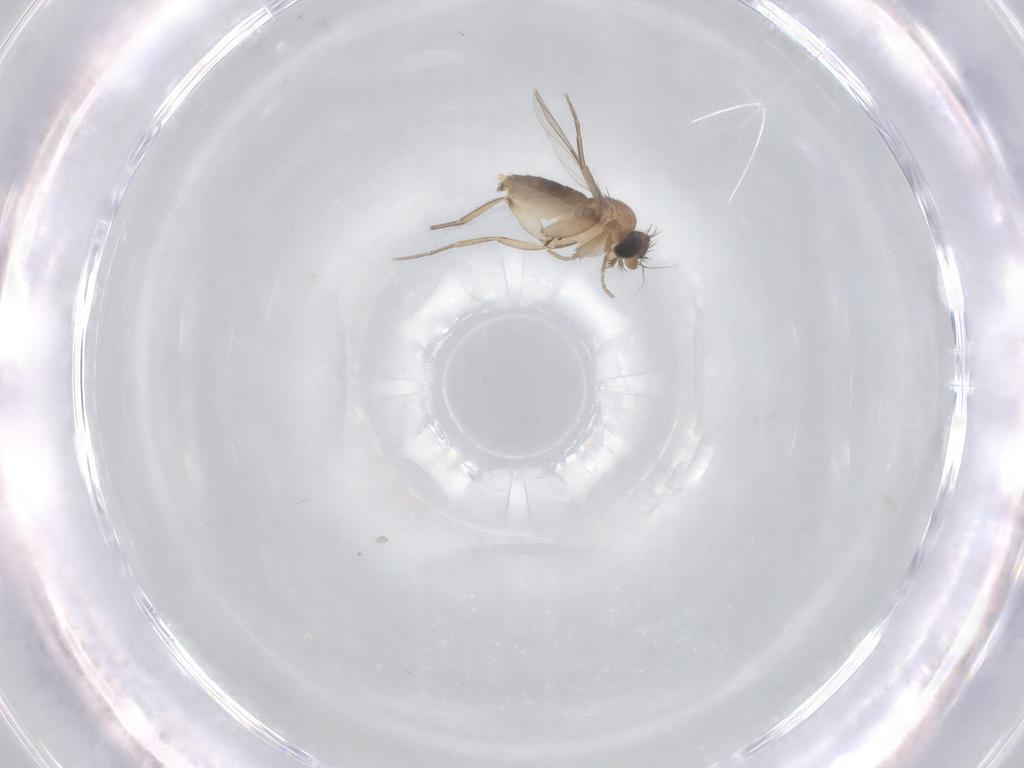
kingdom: Animalia
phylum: Arthropoda
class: Insecta
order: Diptera
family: Phoridae
